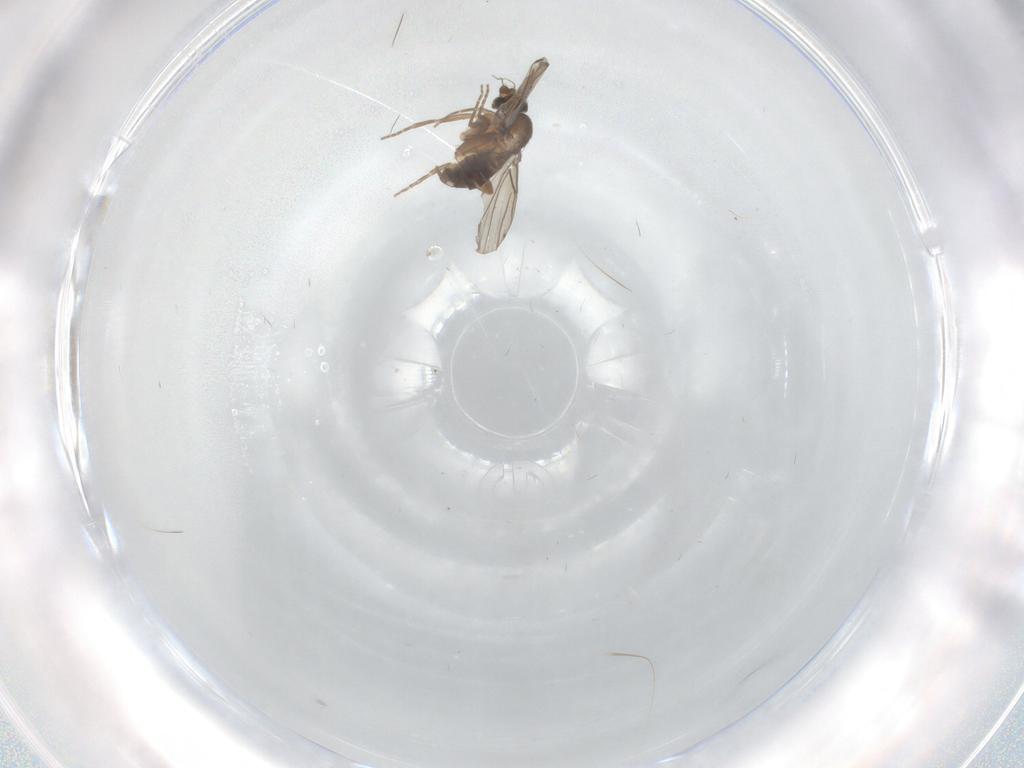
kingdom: Animalia
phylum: Arthropoda
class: Insecta
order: Diptera
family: Phoridae
